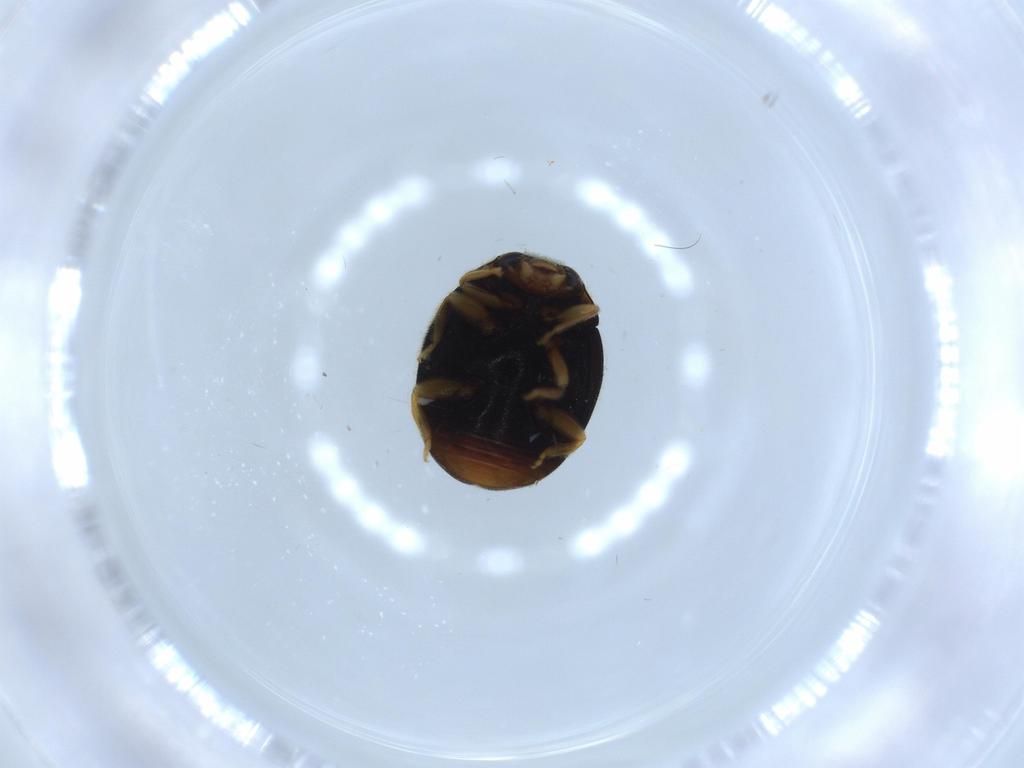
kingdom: Animalia
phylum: Arthropoda
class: Insecta
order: Coleoptera
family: Coccinellidae
